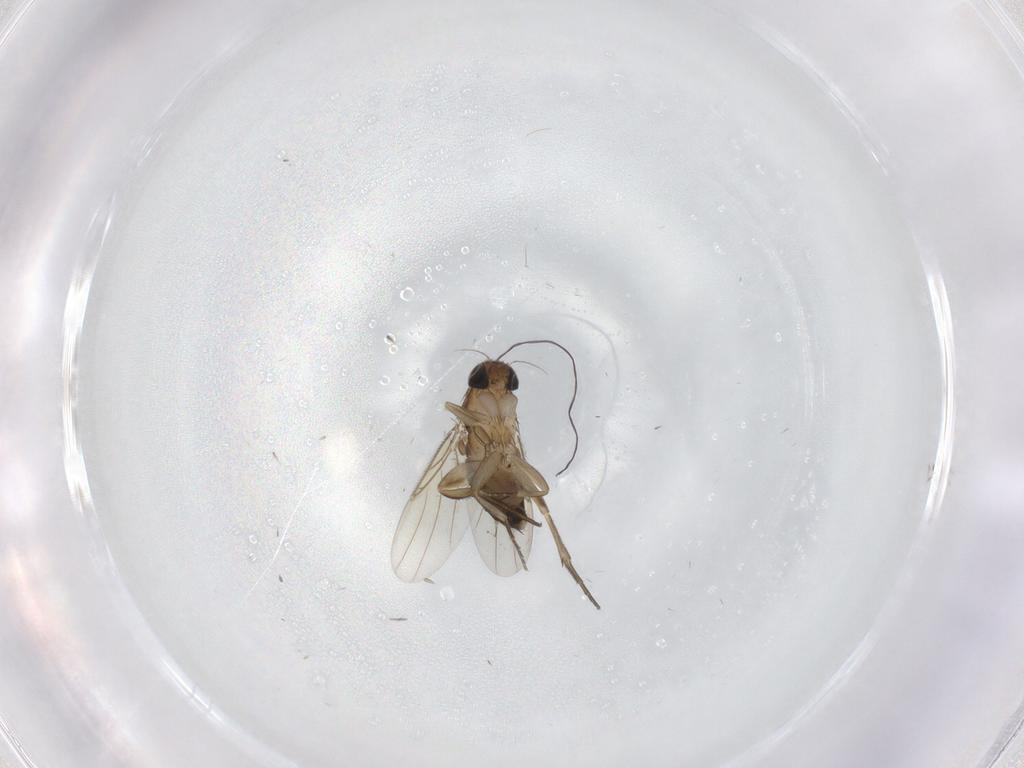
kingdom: Animalia
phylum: Arthropoda
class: Insecta
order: Diptera
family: Phoridae
